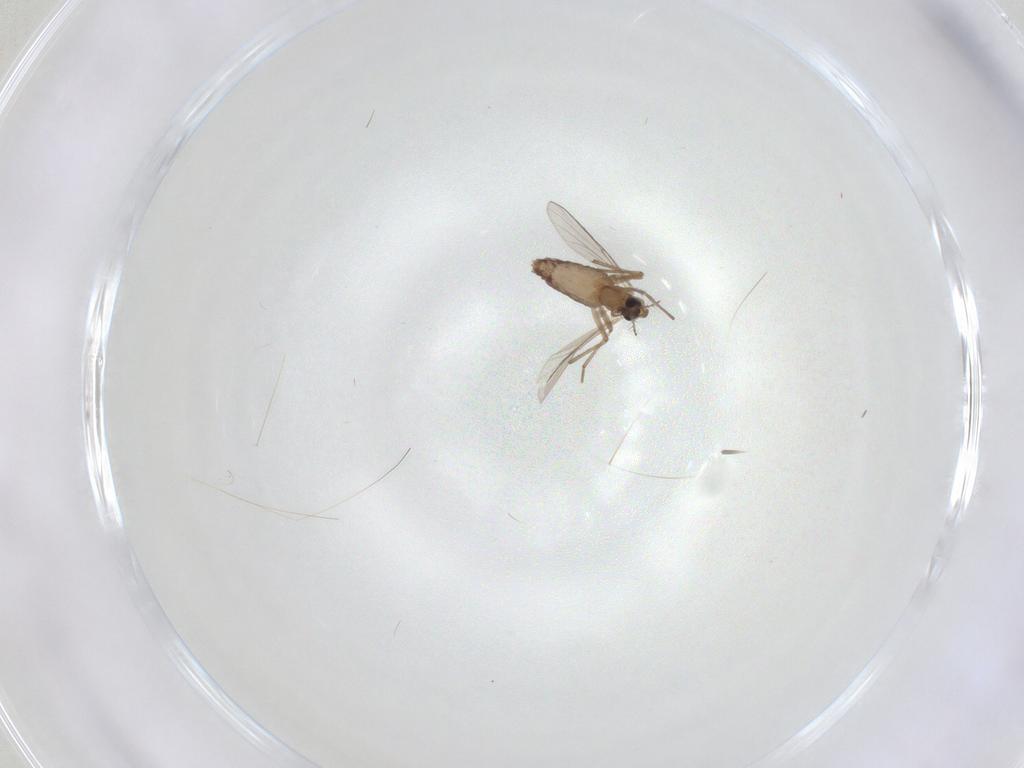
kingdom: Animalia
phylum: Arthropoda
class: Insecta
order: Diptera
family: Chironomidae
